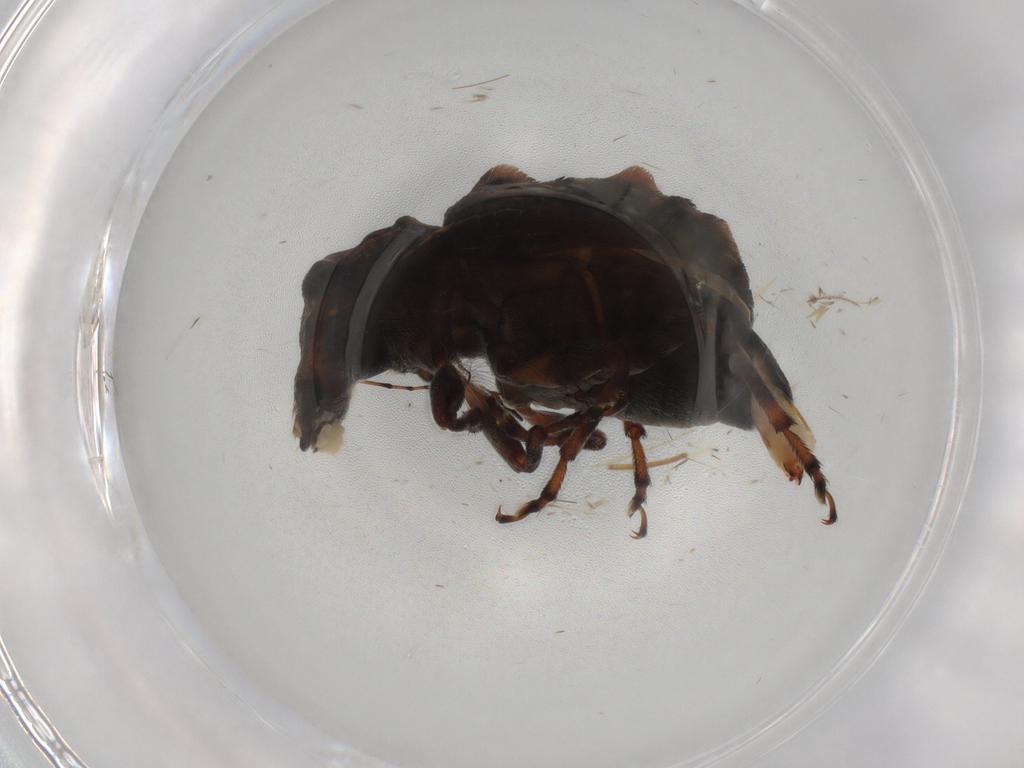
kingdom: Animalia
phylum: Arthropoda
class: Insecta
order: Coleoptera
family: Anthribidae
